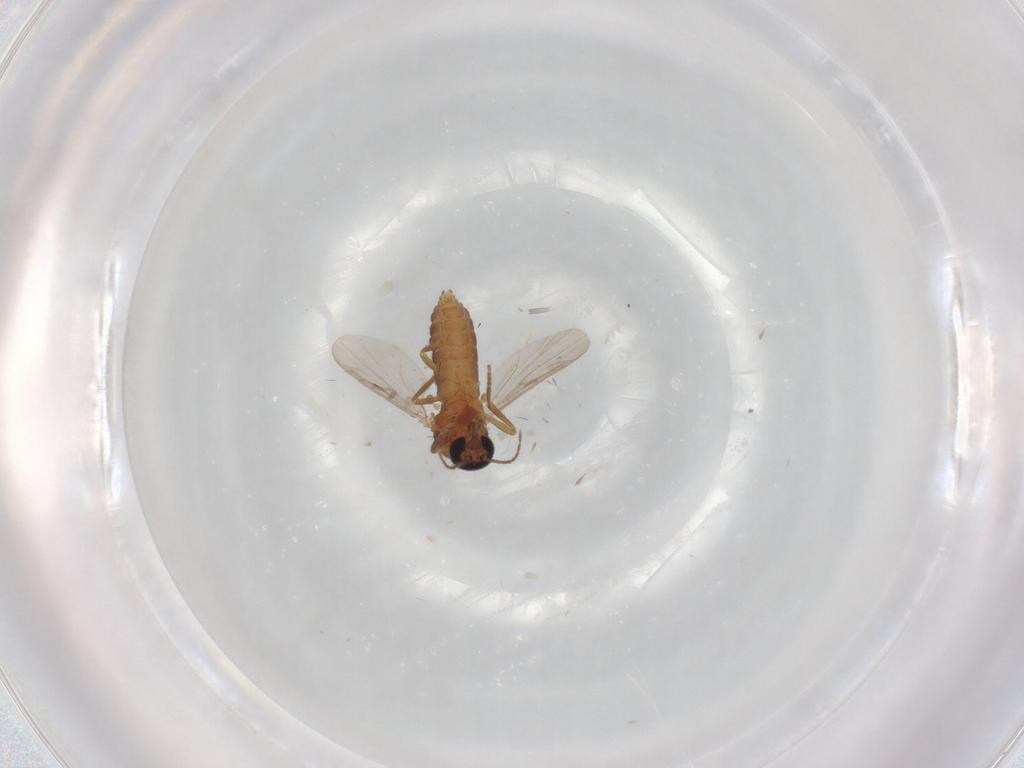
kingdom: Animalia
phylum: Arthropoda
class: Insecta
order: Diptera
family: Ceratopogonidae
